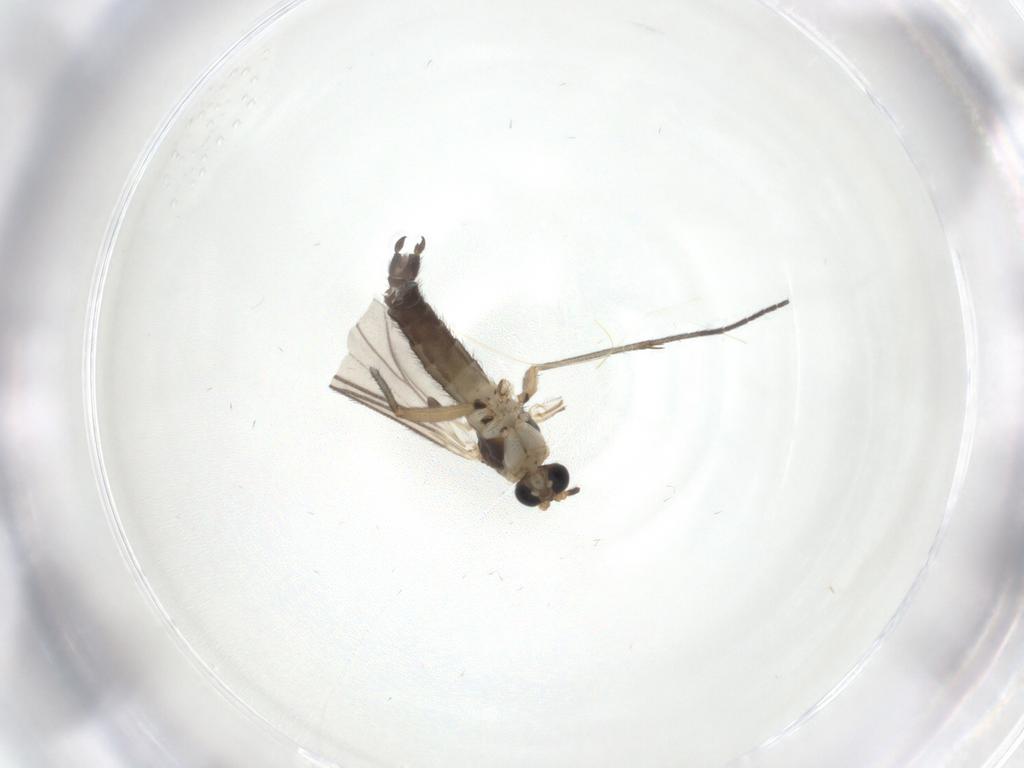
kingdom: Animalia
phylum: Arthropoda
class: Insecta
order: Diptera
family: Sciaridae
